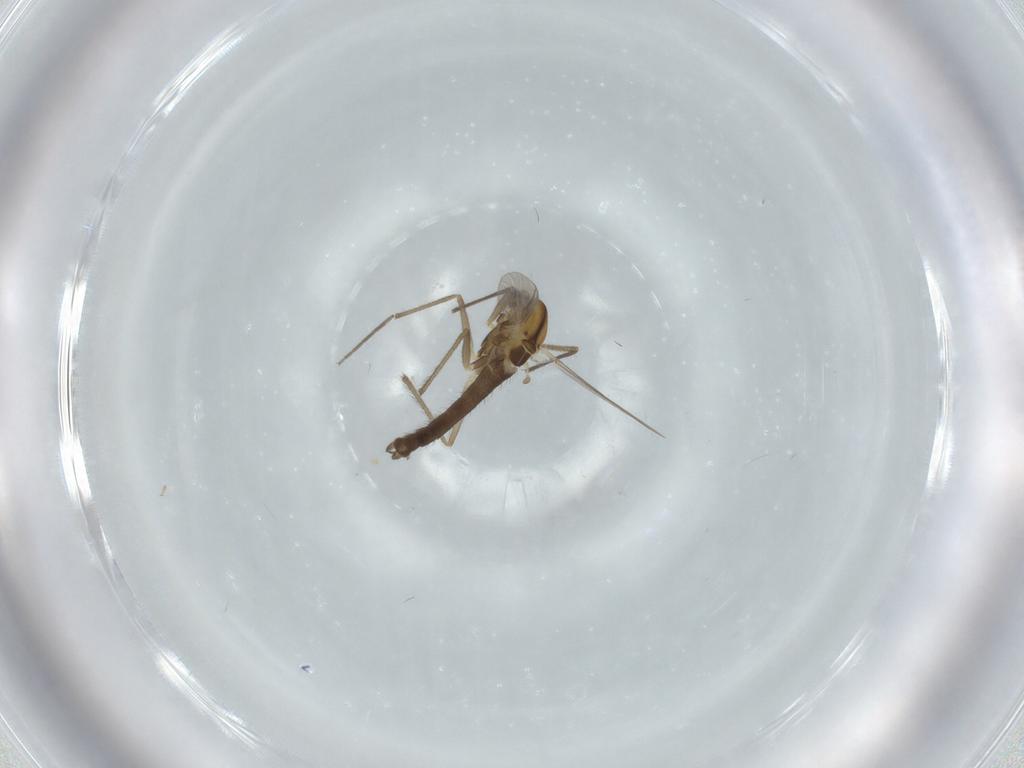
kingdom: Animalia
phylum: Arthropoda
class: Insecta
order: Diptera
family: Chironomidae
